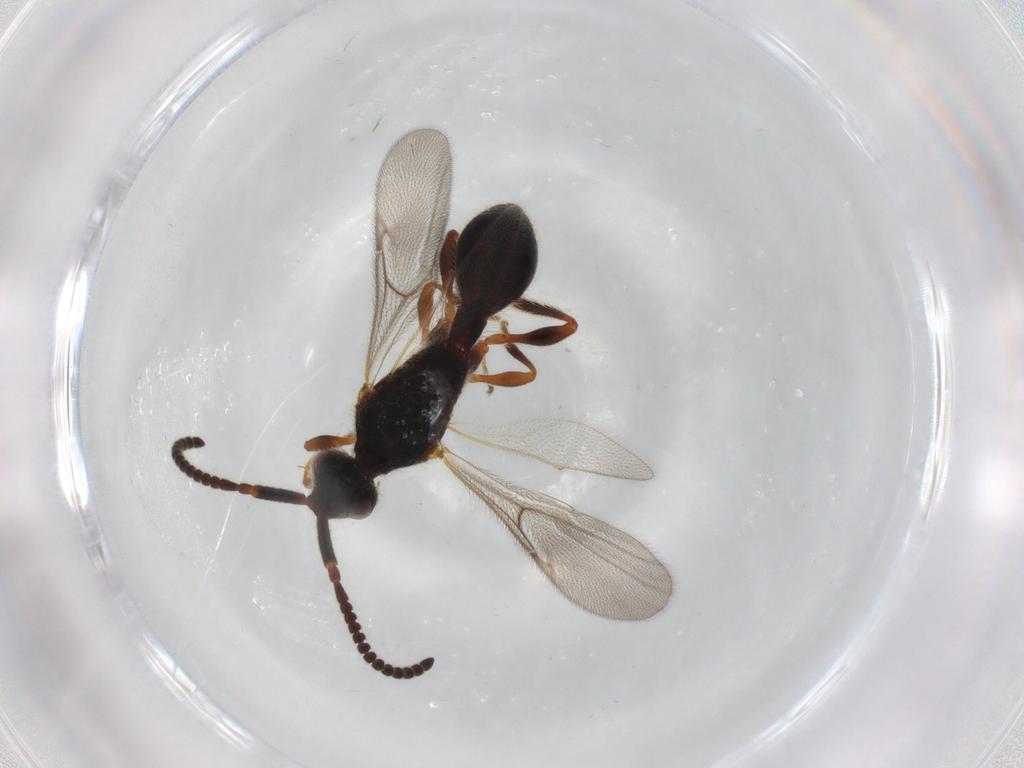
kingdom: Animalia
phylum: Arthropoda
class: Insecta
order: Hymenoptera
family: Diapriidae
